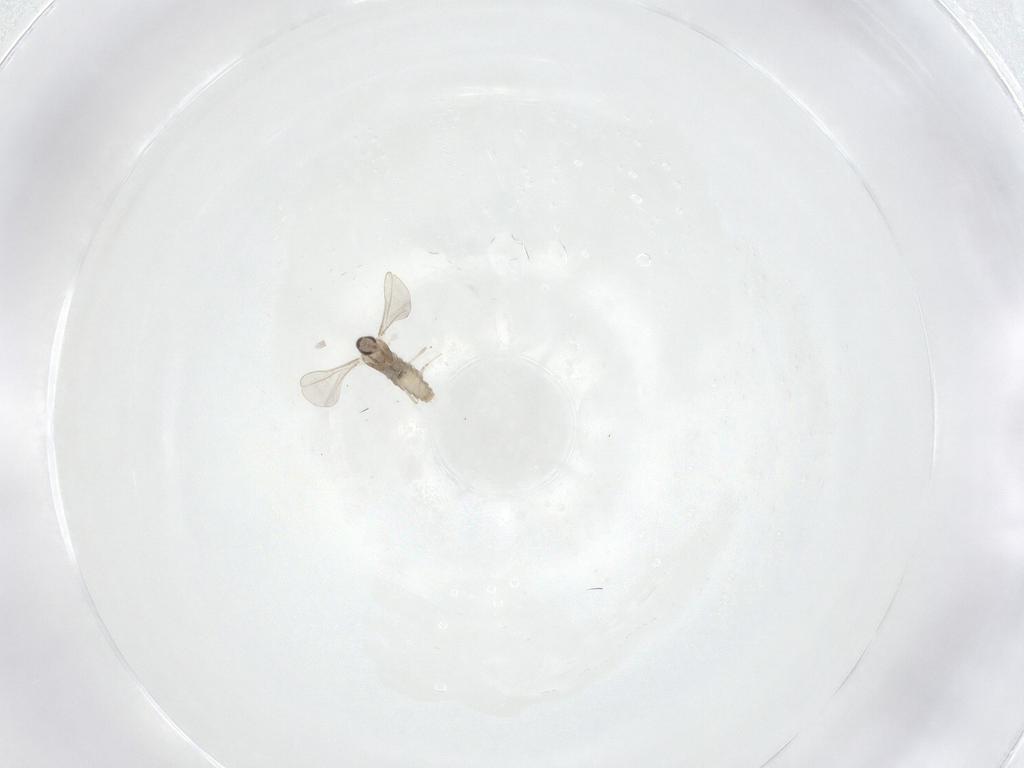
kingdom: Animalia
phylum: Arthropoda
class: Insecta
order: Diptera
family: Cecidomyiidae
